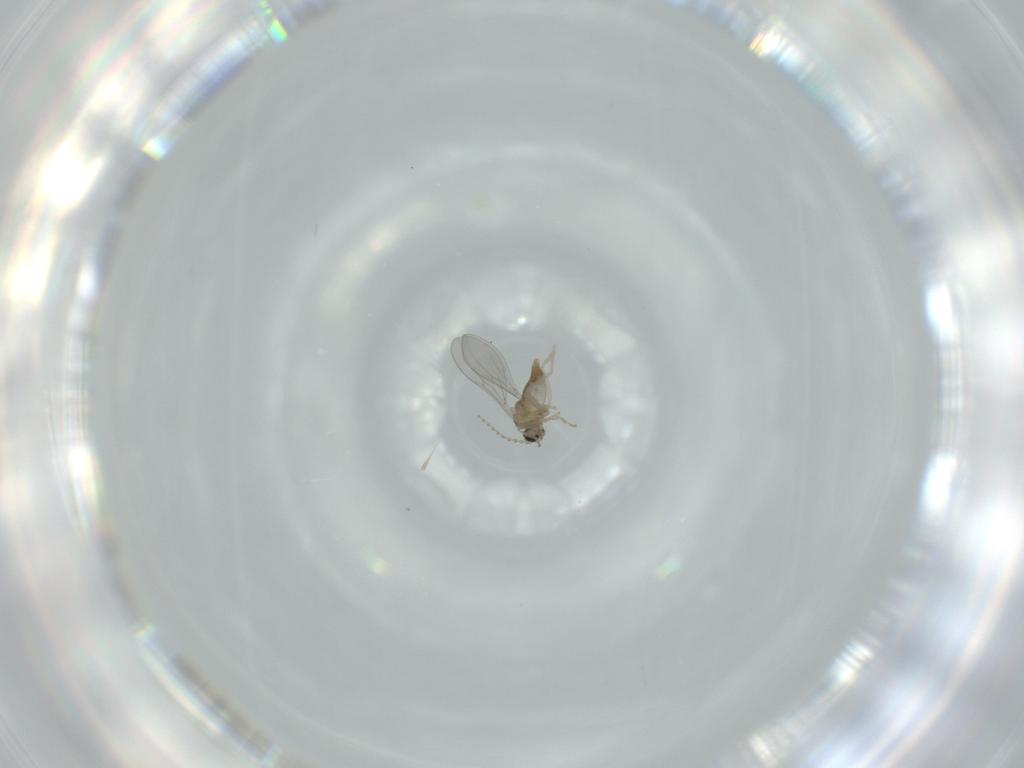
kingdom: Animalia
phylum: Arthropoda
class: Insecta
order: Diptera
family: Cecidomyiidae
